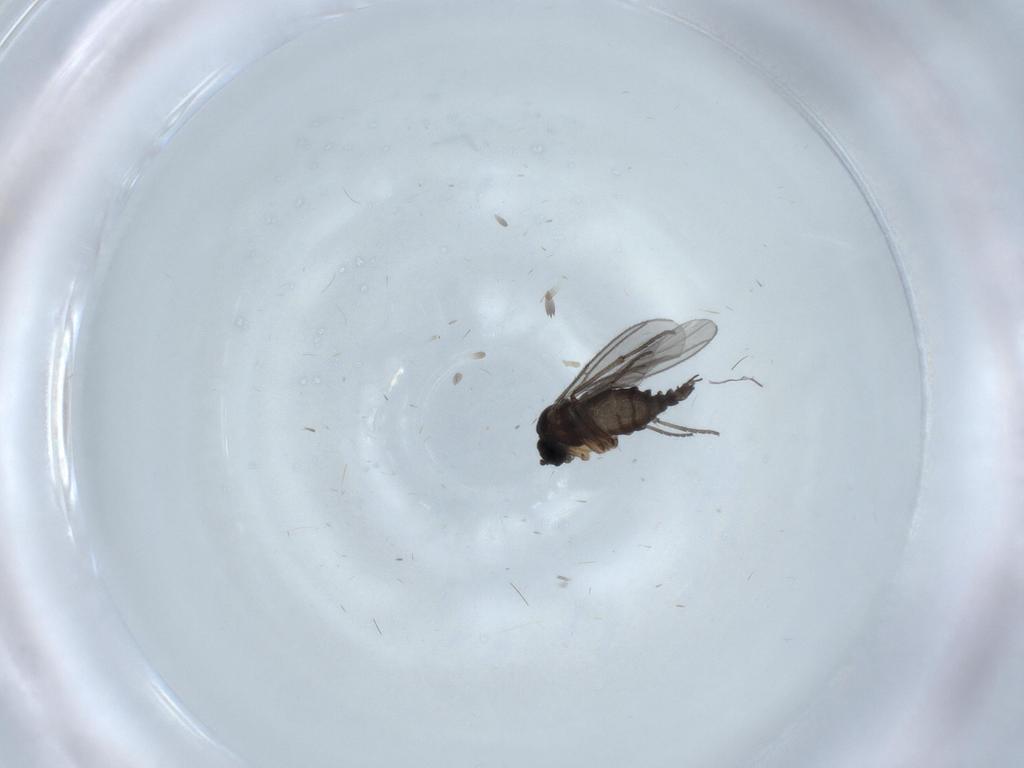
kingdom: Animalia
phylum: Arthropoda
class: Insecta
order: Diptera
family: Sciaridae
